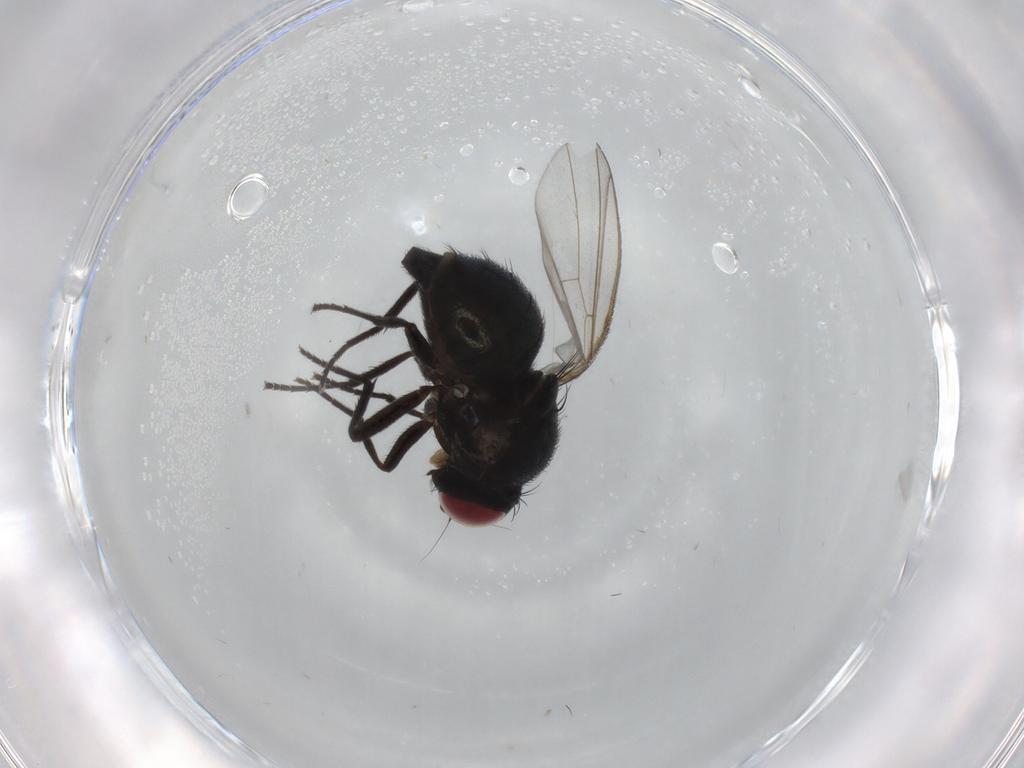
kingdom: Animalia
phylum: Arthropoda
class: Insecta
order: Diptera
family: Agromyzidae
